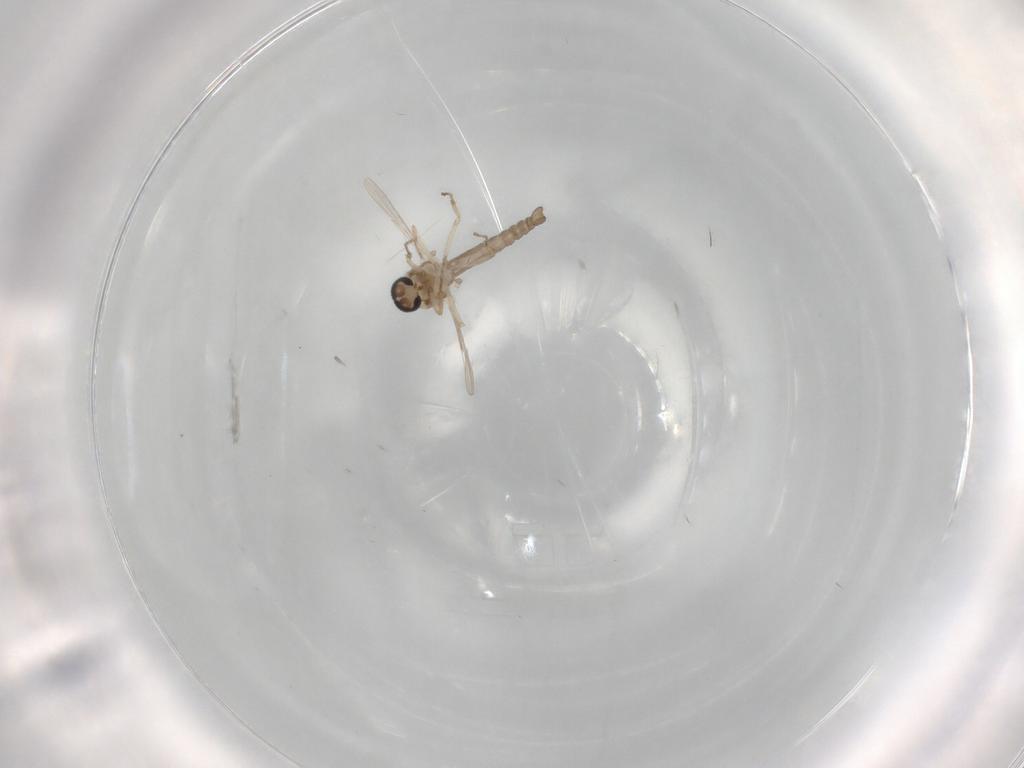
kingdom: Animalia
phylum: Arthropoda
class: Insecta
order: Diptera
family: Ceratopogonidae
